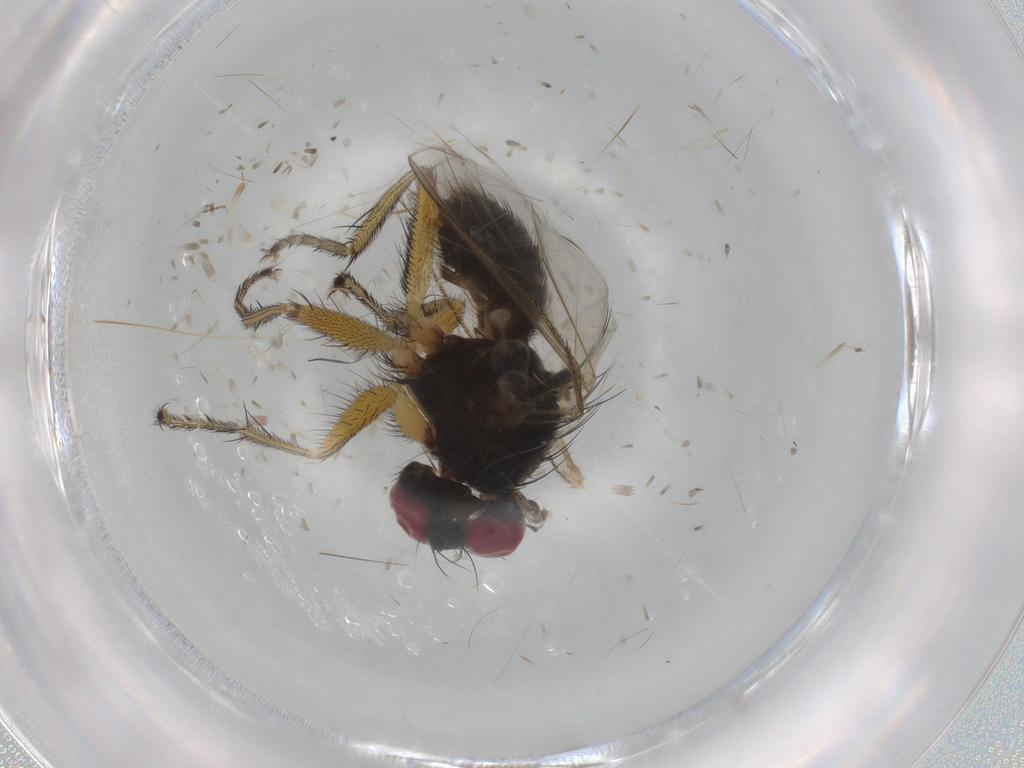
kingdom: Animalia
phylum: Arthropoda
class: Insecta
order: Diptera
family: Muscidae
